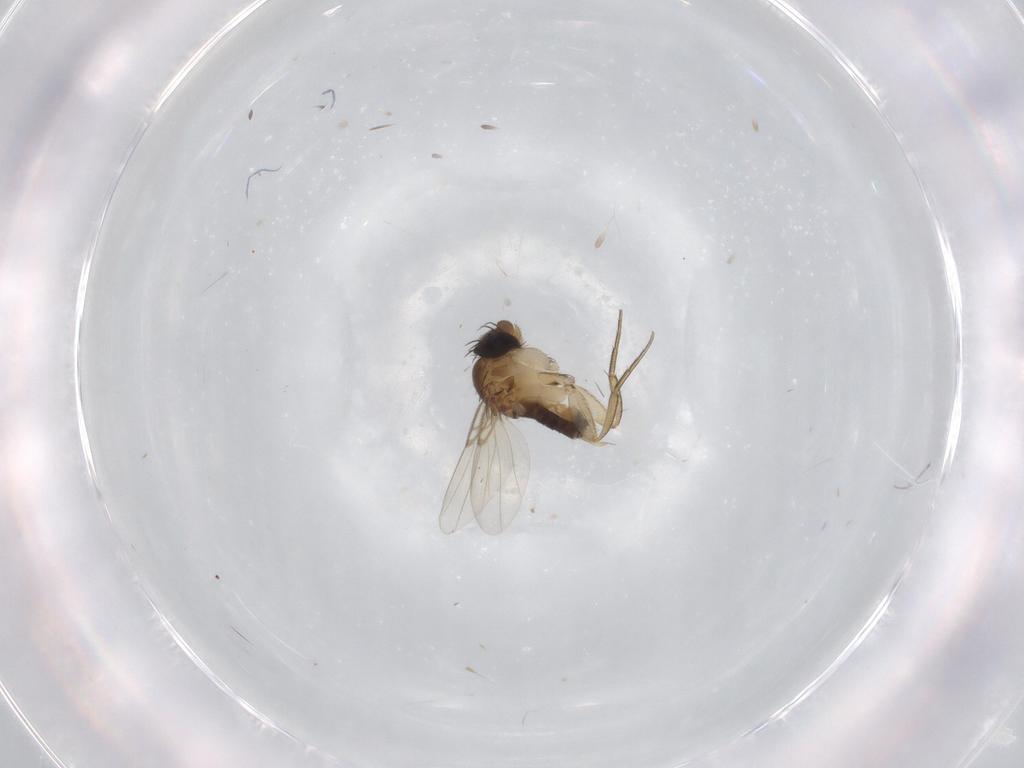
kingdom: Animalia
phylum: Arthropoda
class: Insecta
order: Diptera
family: Phoridae
